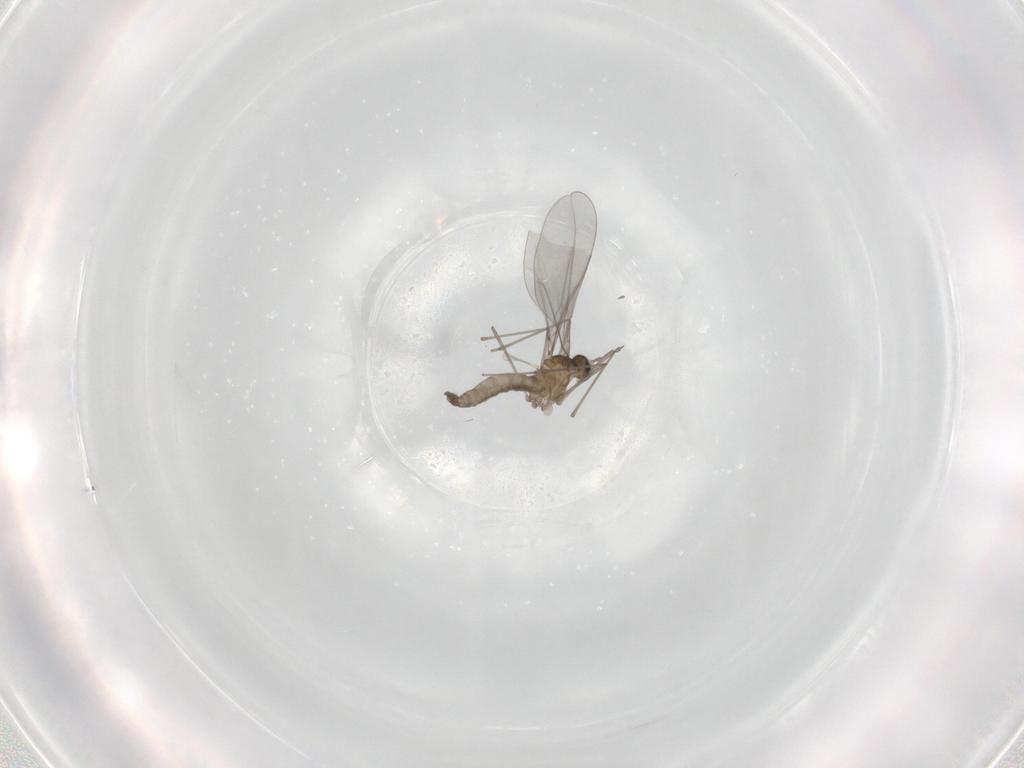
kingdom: Animalia
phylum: Arthropoda
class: Insecta
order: Diptera
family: Cecidomyiidae
